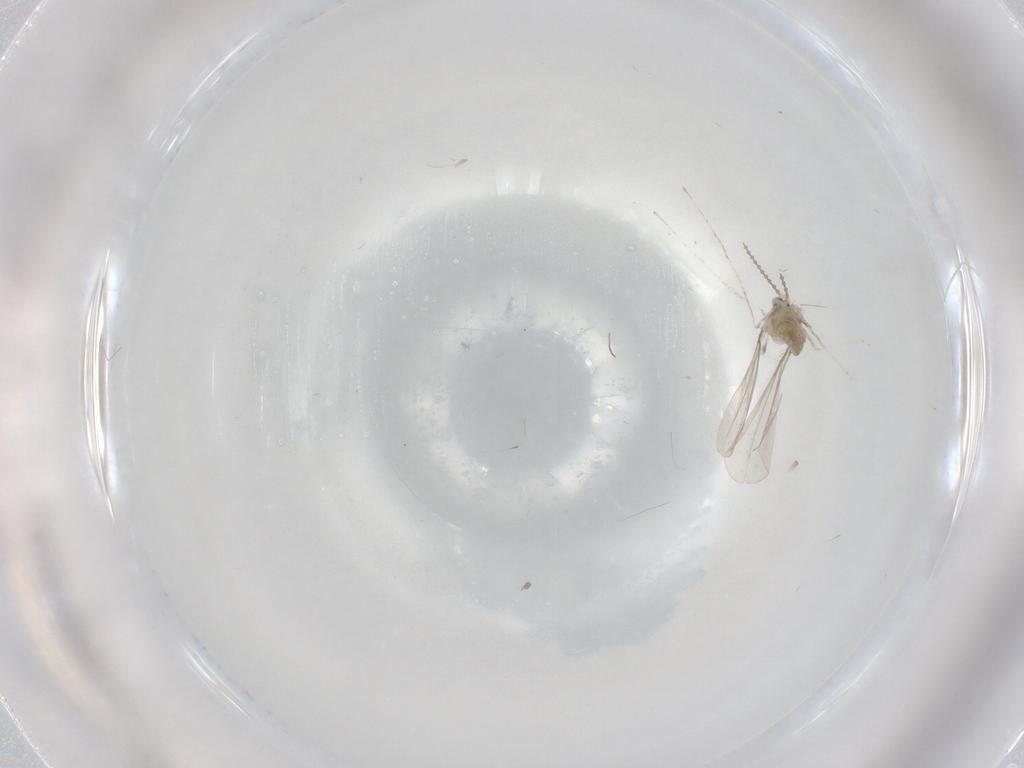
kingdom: Animalia
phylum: Arthropoda
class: Insecta
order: Diptera
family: Cecidomyiidae
